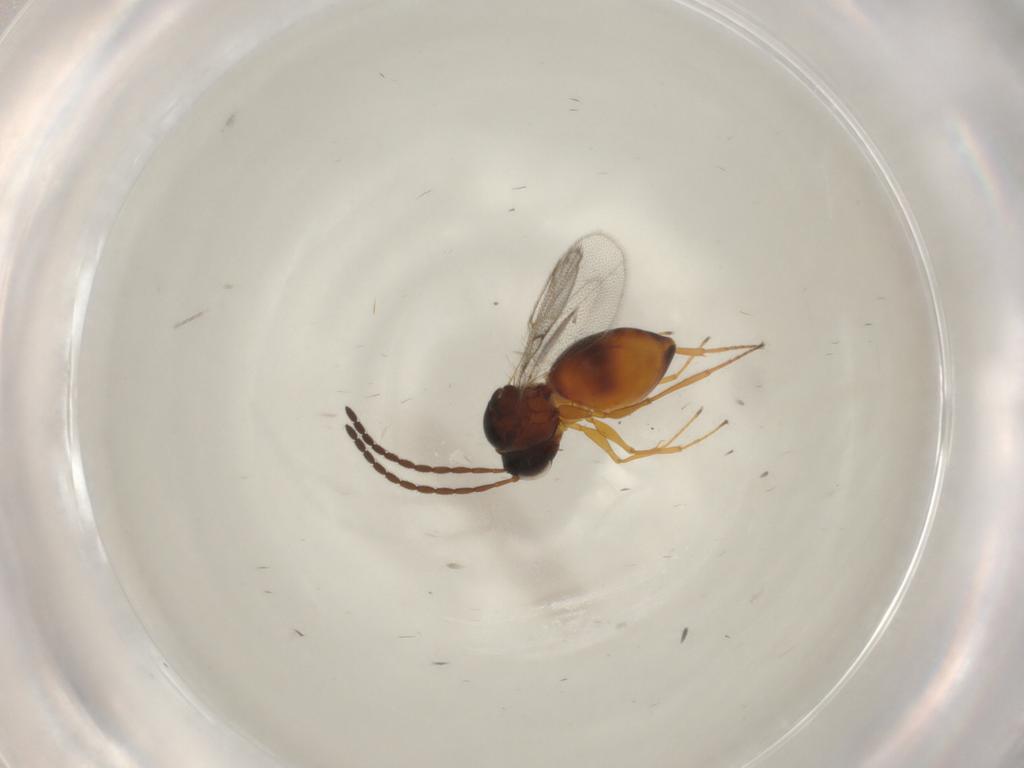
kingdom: Animalia
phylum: Arthropoda
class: Insecta
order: Hymenoptera
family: Figitidae
